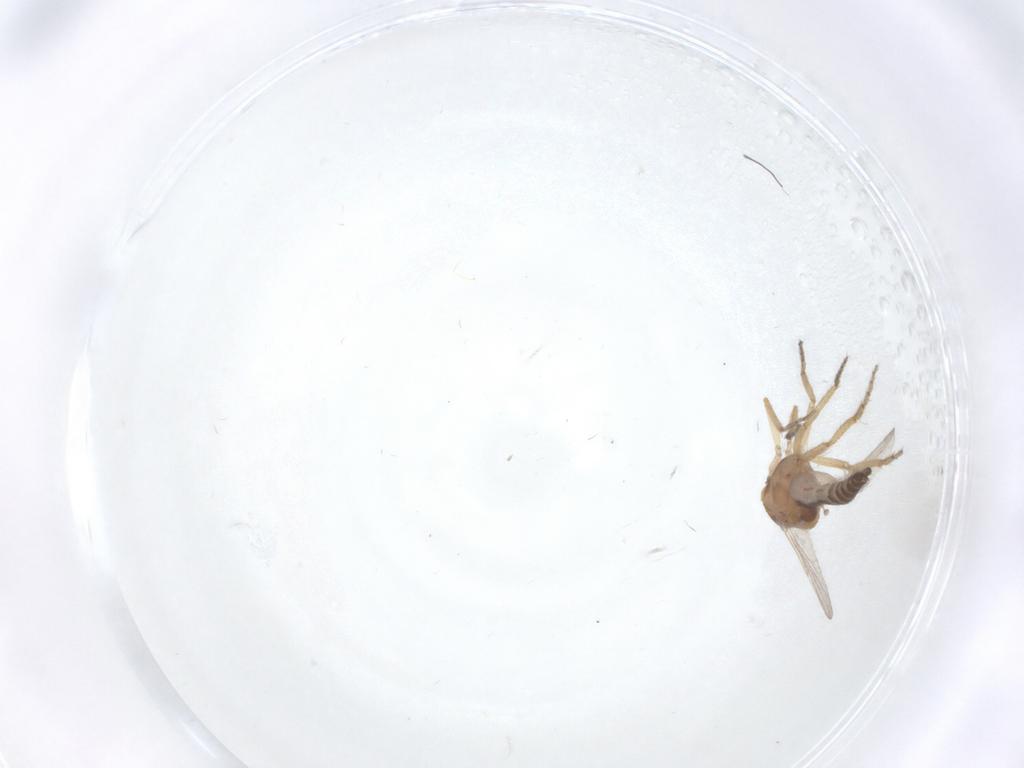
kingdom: Animalia
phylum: Arthropoda
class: Insecta
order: Diptera
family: Ceratopogonidae
